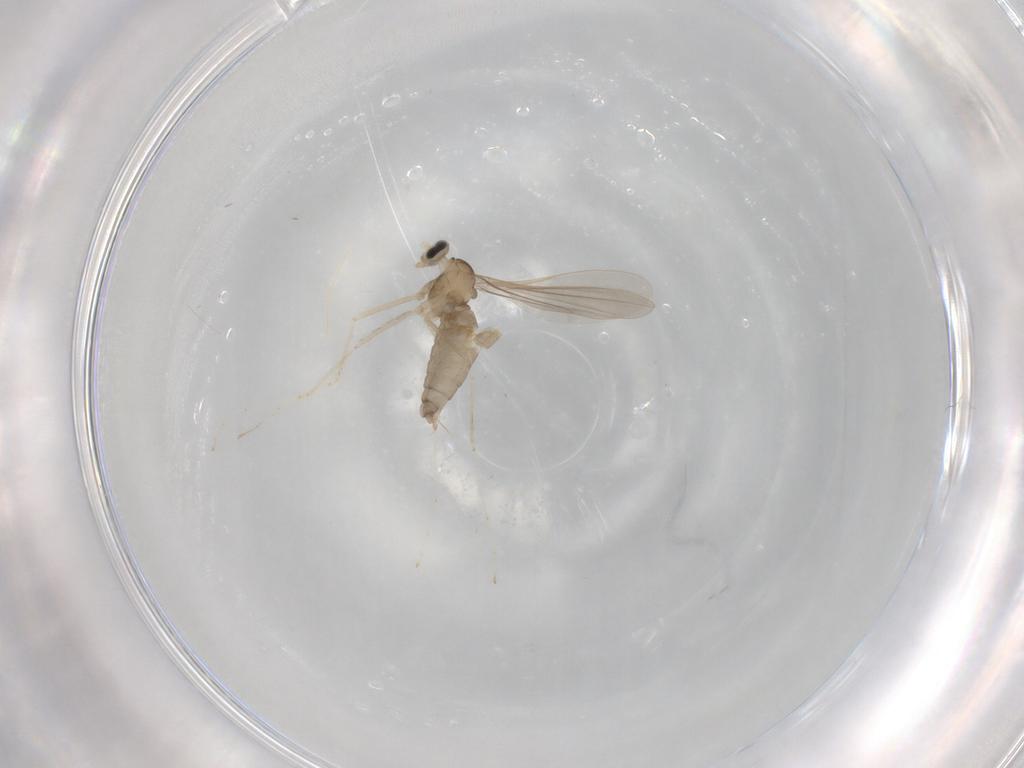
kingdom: Animalia
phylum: Arthropoda
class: Insecta
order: Diptera
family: Cecidomyiidae
